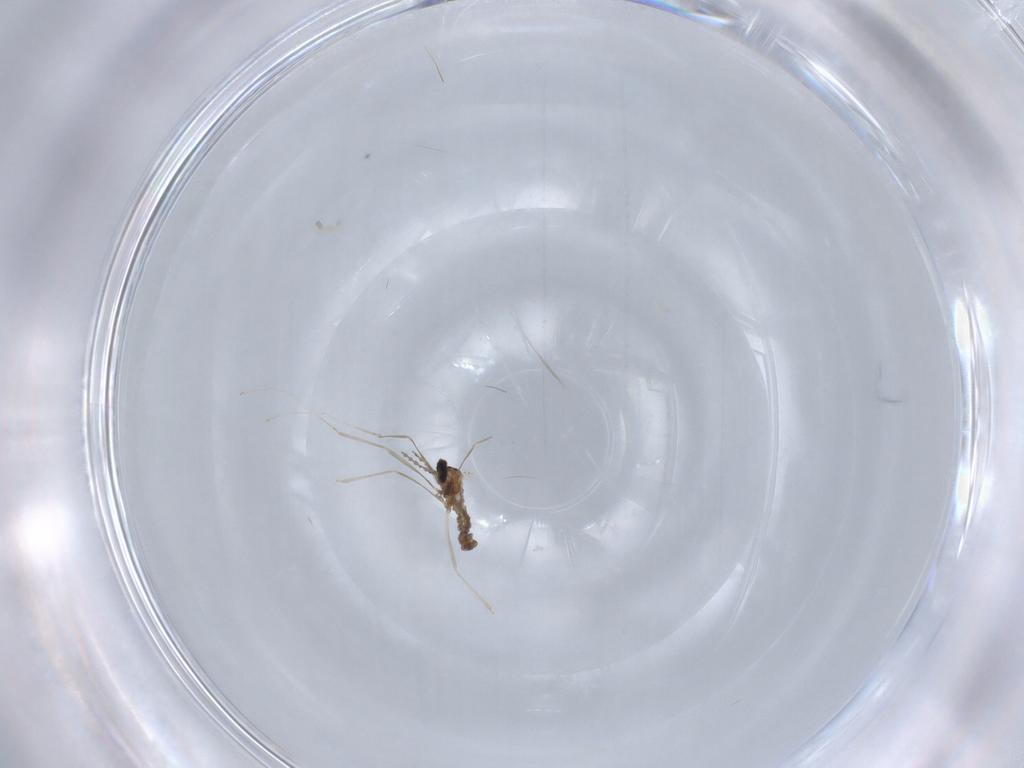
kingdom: Animalia
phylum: Arthropoda
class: Insecta
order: Diptera
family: Cecidomyiidae
